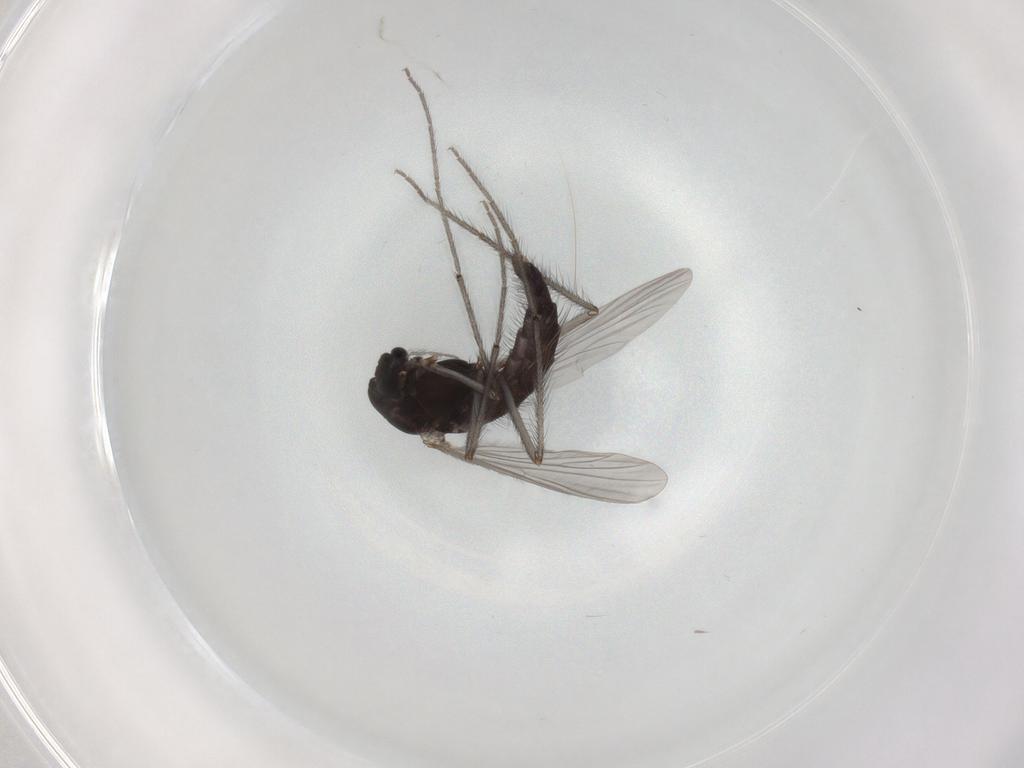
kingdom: Animalia
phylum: Arthropoda
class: Insecta
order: Diptera
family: Chironomidae
